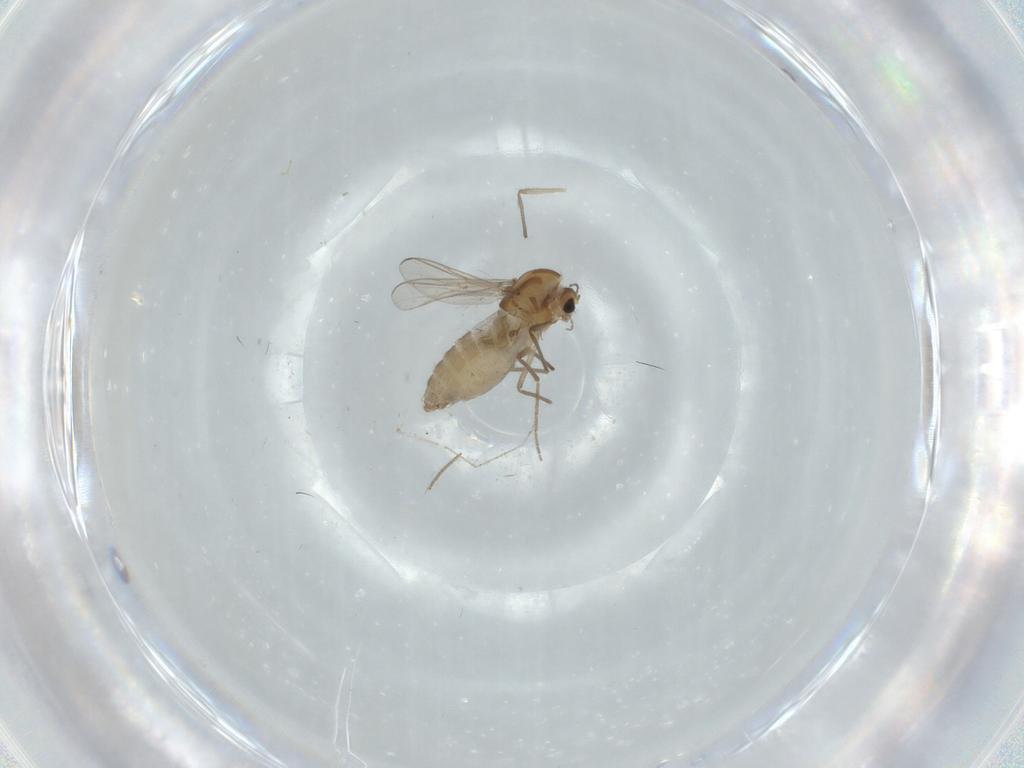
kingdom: Animalia
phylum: Arthropoda
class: Insecta
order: Diptera
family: Chironomidae
